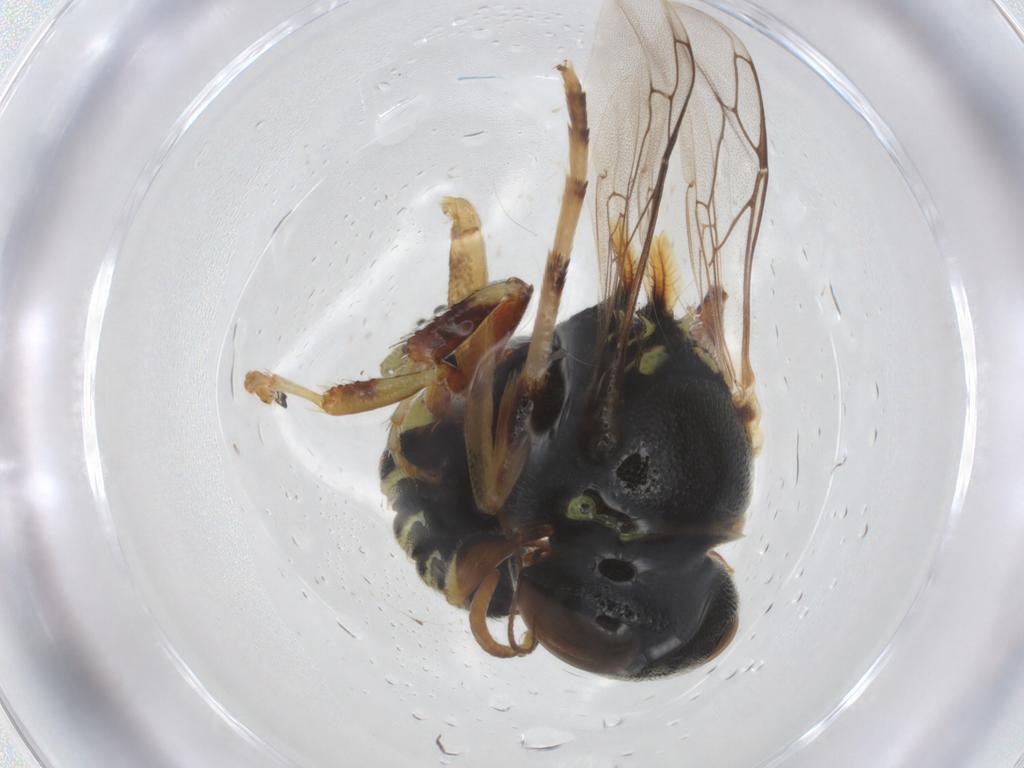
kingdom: Animalia
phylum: Arthropoda
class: Insecta
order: Hymenoptera
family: Crabronidae
